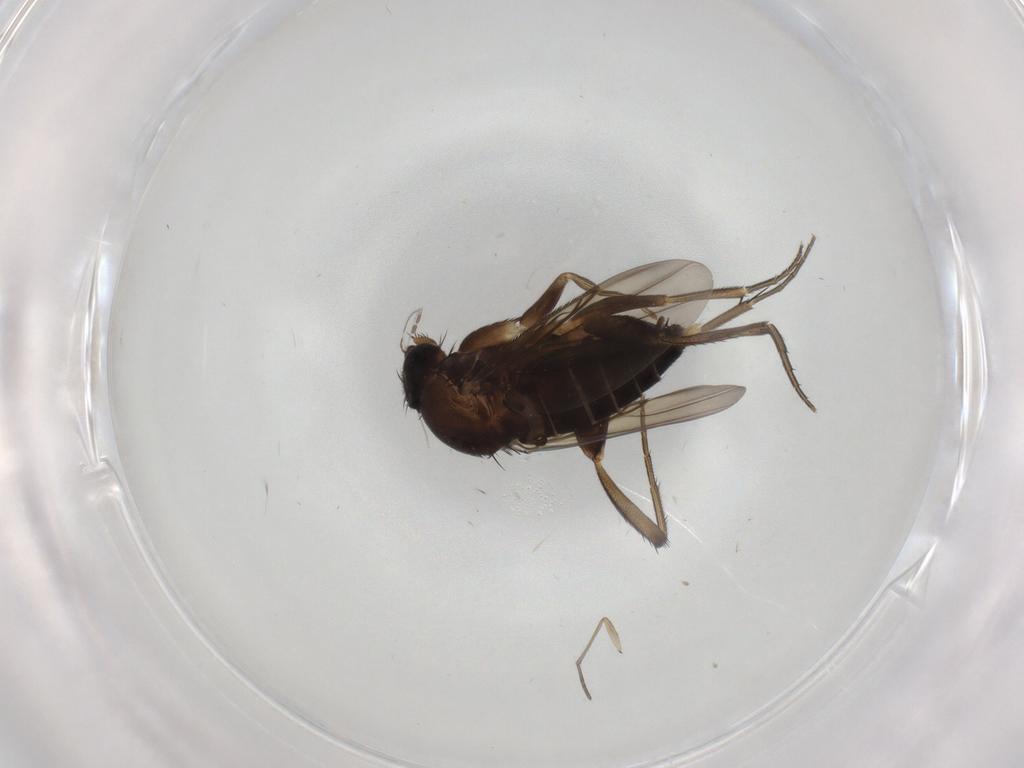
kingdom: Animalia
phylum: Arthropoda
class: Insecta
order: Diptera
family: Phoridae
